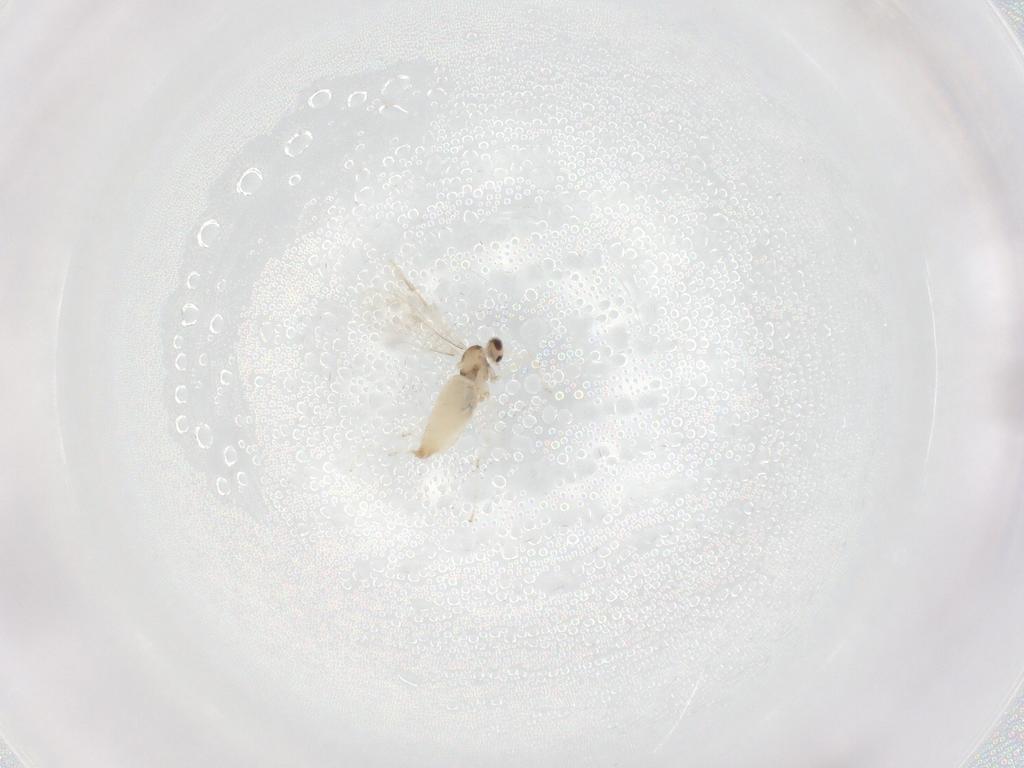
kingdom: Animalia
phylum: Arthropoda
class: Insecta
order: Diptera
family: Cecidomyiidae
